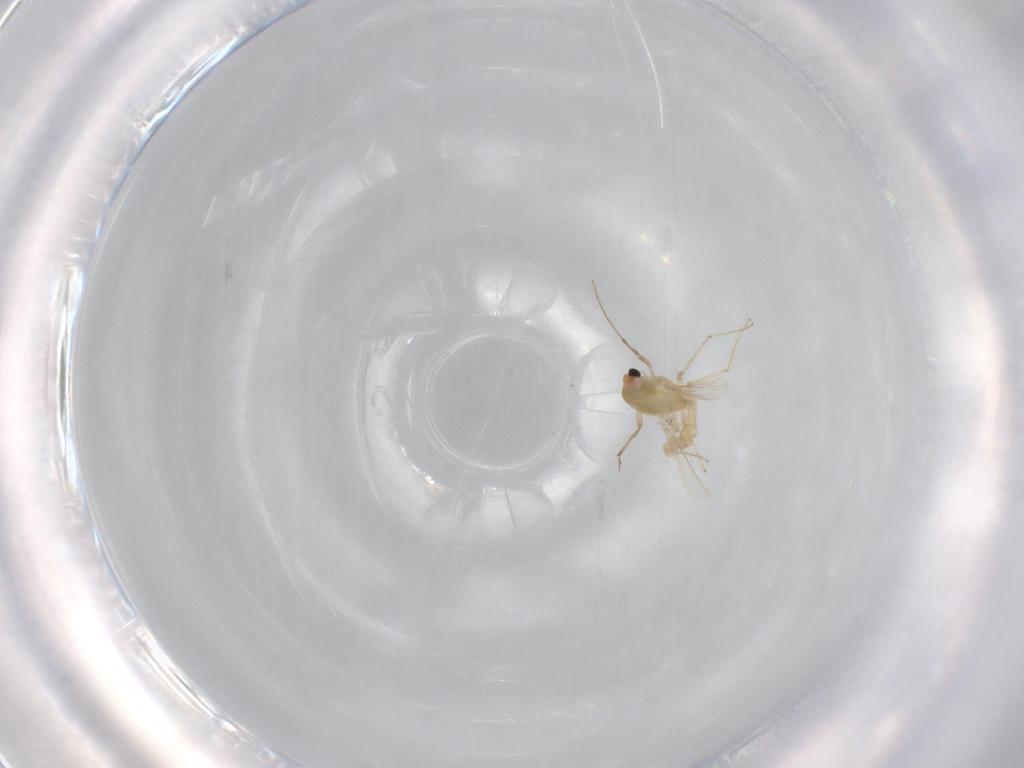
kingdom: Animalia
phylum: Arthropoda
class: Insecta
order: Diptera
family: Chironomidae
